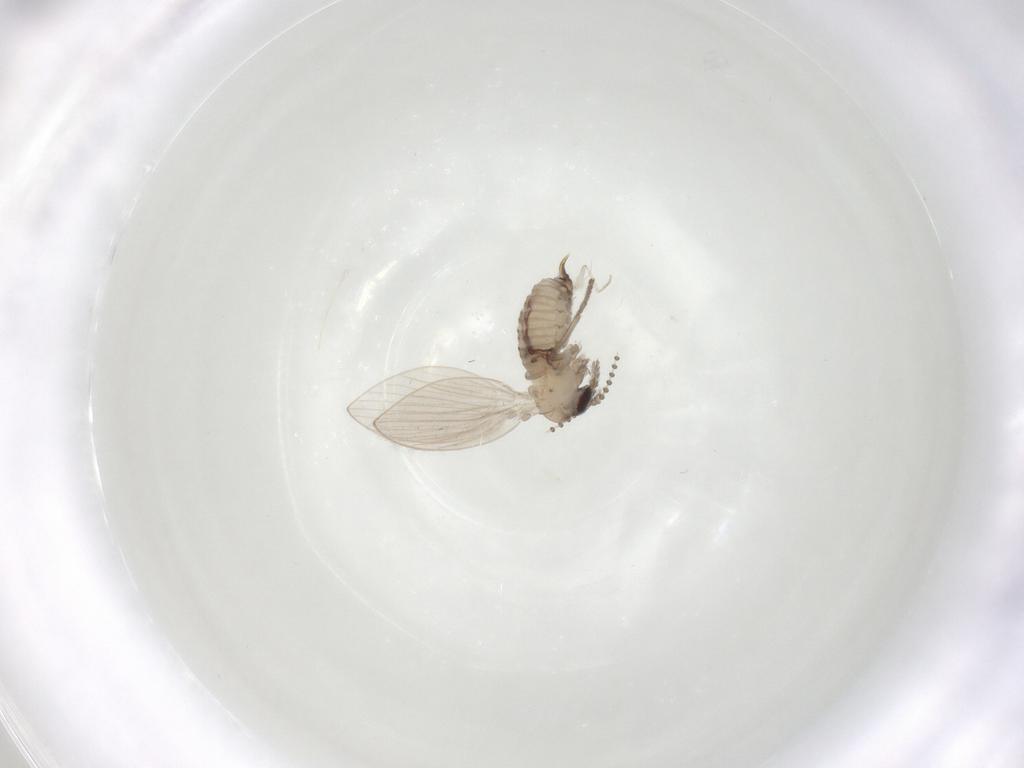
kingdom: Animalia
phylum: Arthropoda
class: Insecta
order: Diptera
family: Psychodidae
